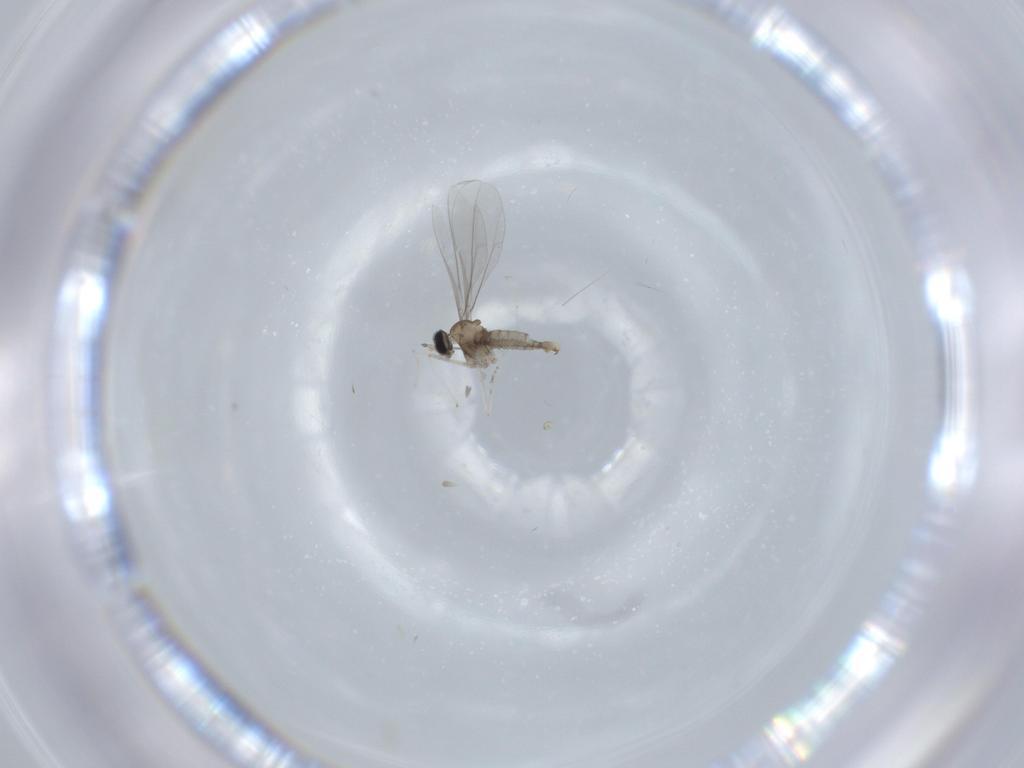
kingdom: Animalia
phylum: Arthropoda
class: Insecta
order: Diptera
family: Cecidomyiidae
